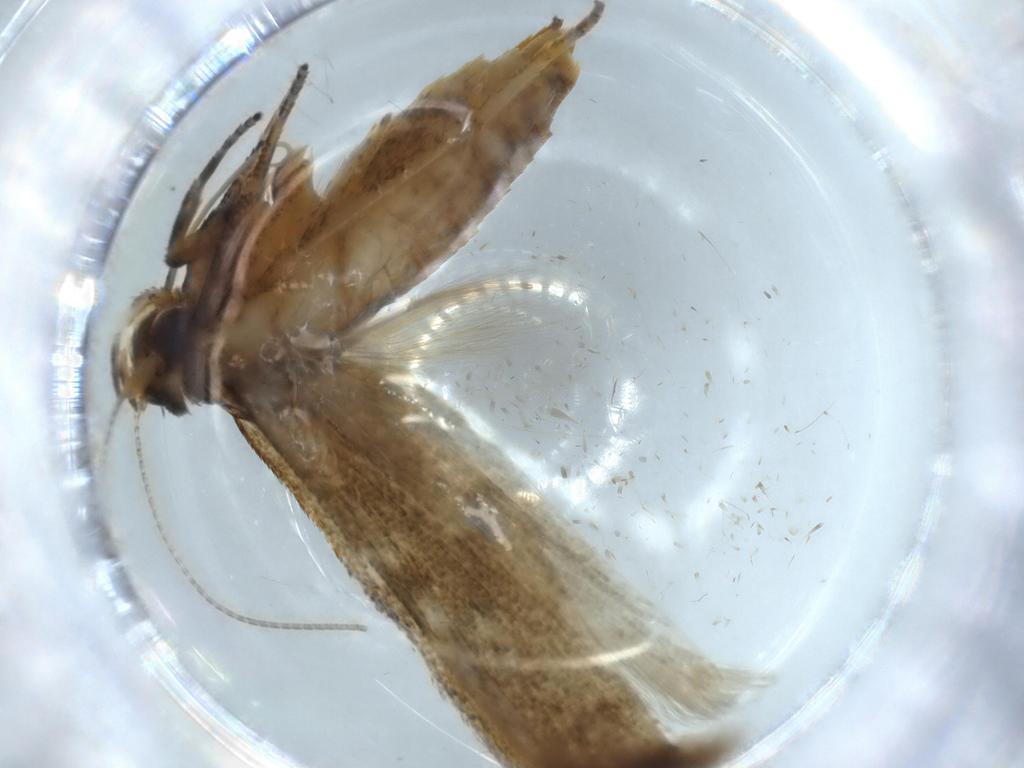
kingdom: Animalia
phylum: Arthropoda
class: Insecta
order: Lepidoptera
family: Coleophoridae
